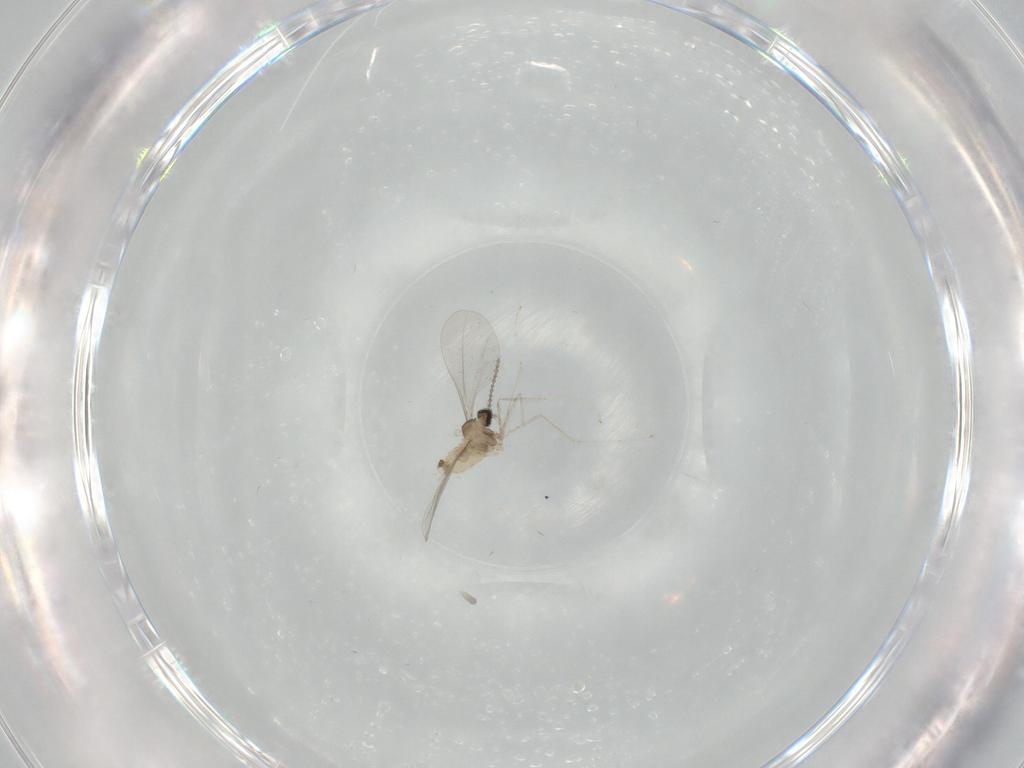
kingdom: Animalia
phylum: Arthropoda
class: Insecta
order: Diptera
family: Cecidomyiidae
